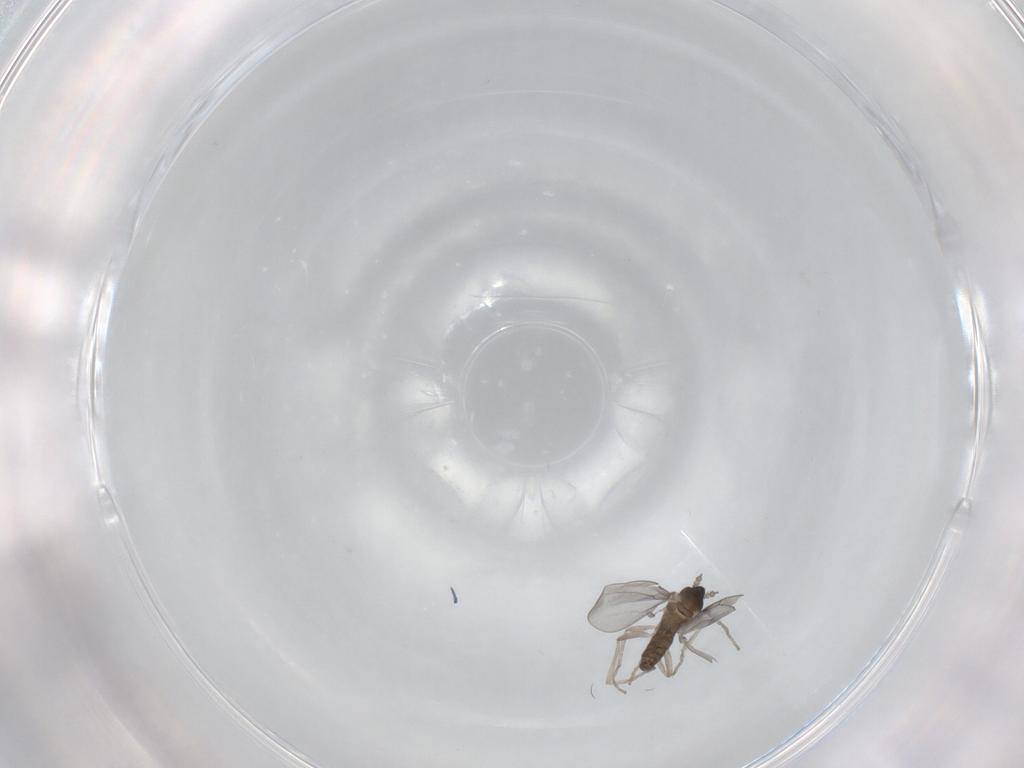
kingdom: Animalia
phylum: Arthropoda
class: Insecta
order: Diptera
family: Cecidomyiidae
